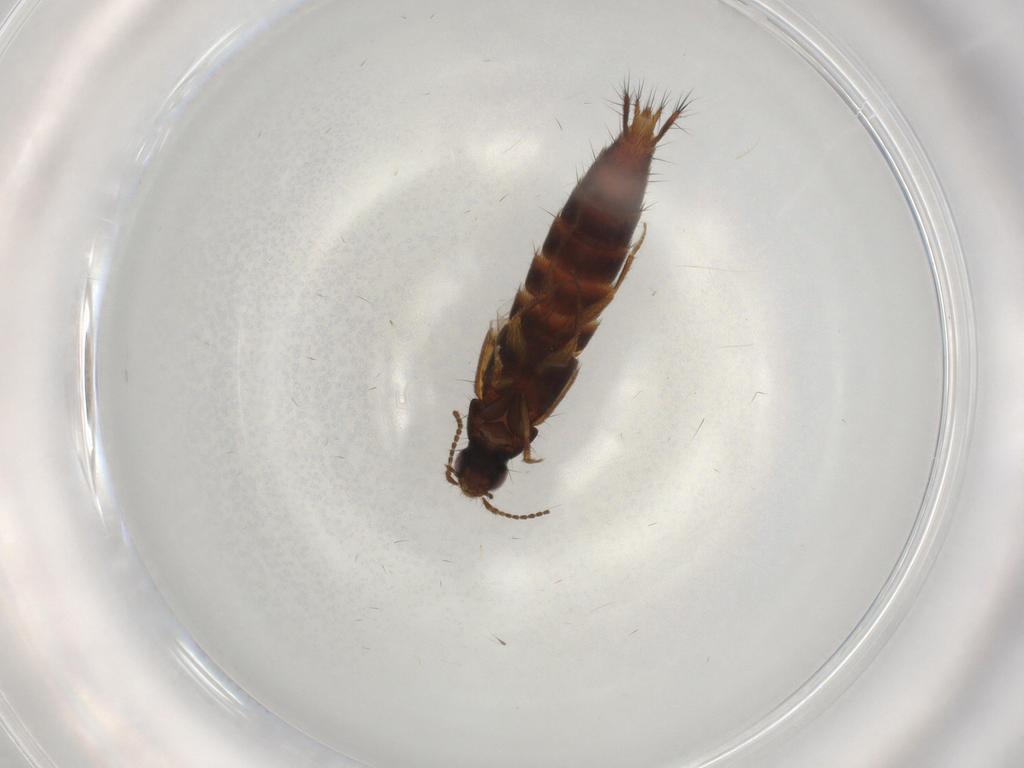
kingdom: Animalia
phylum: Arthropoda
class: Insecta
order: Coleoptera
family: Staphylinidae
